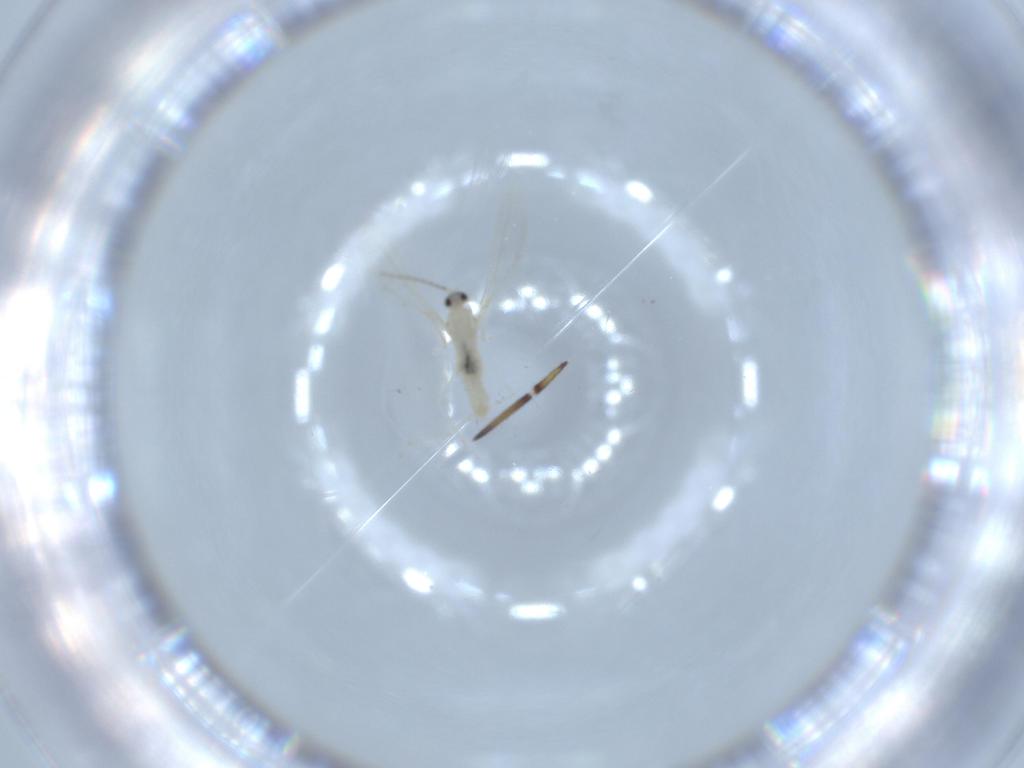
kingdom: Animalia
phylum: Arthropoda
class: Insecta
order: Diptera
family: Cecidomyiidae
